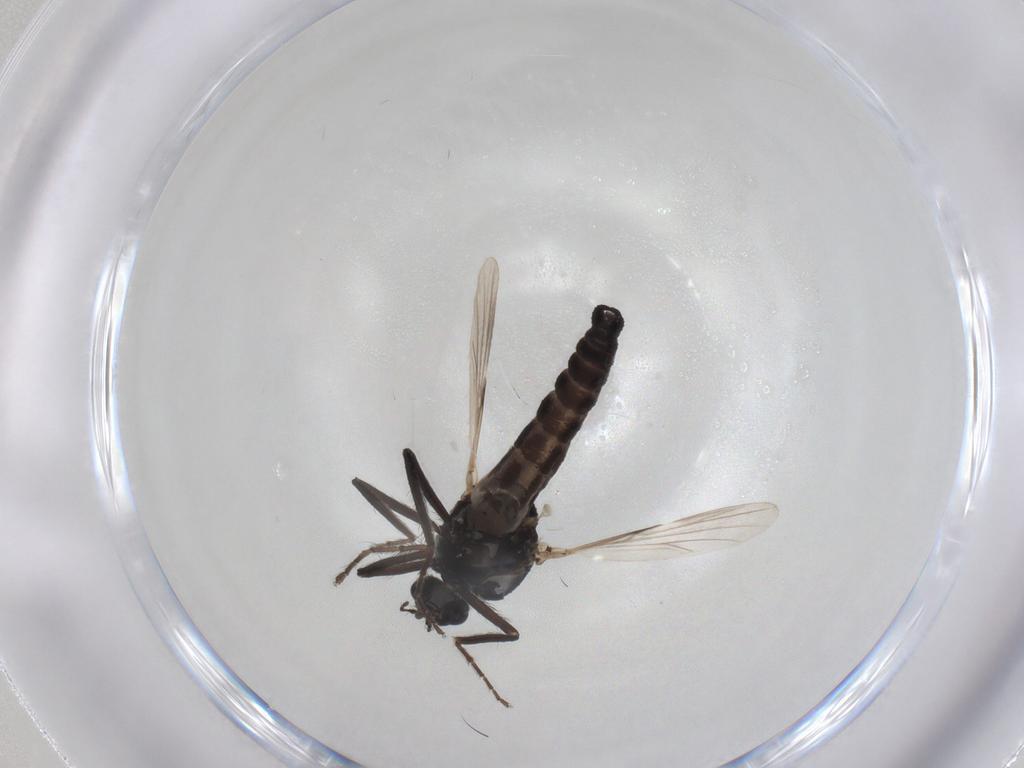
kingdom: Animalia
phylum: Arthropoda
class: Insecta
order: Diptera
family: Ceratopogonidae
